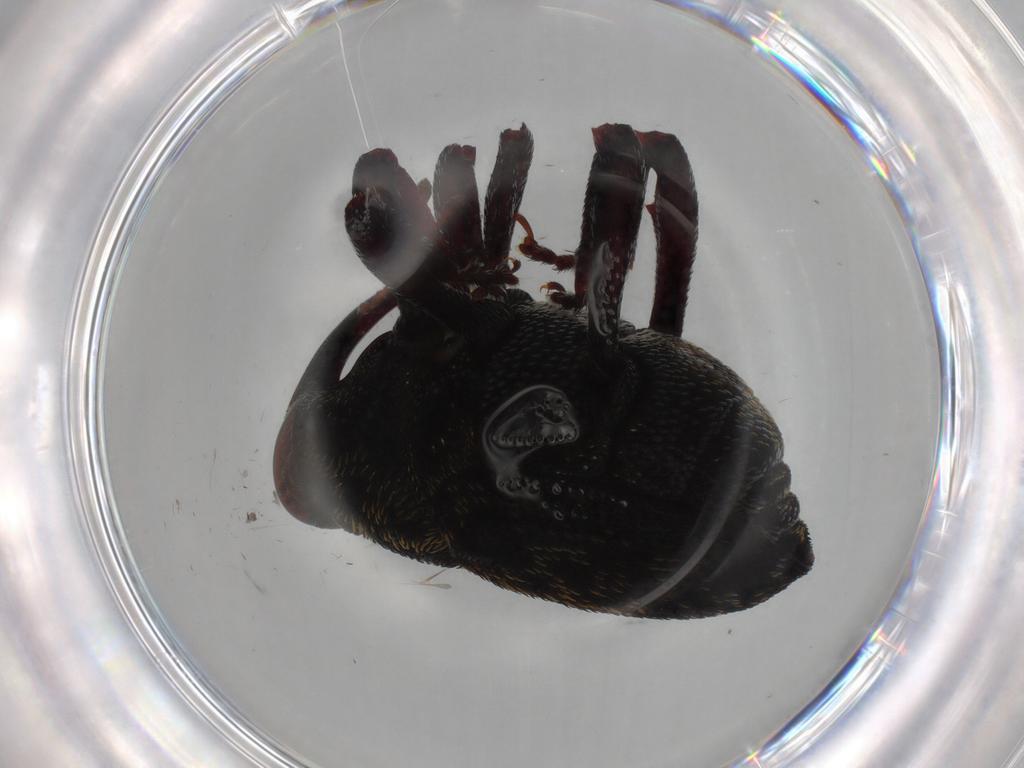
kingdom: Animalia
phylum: Arthropoda
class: Insecta
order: Coleoptera
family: Curculionidae
